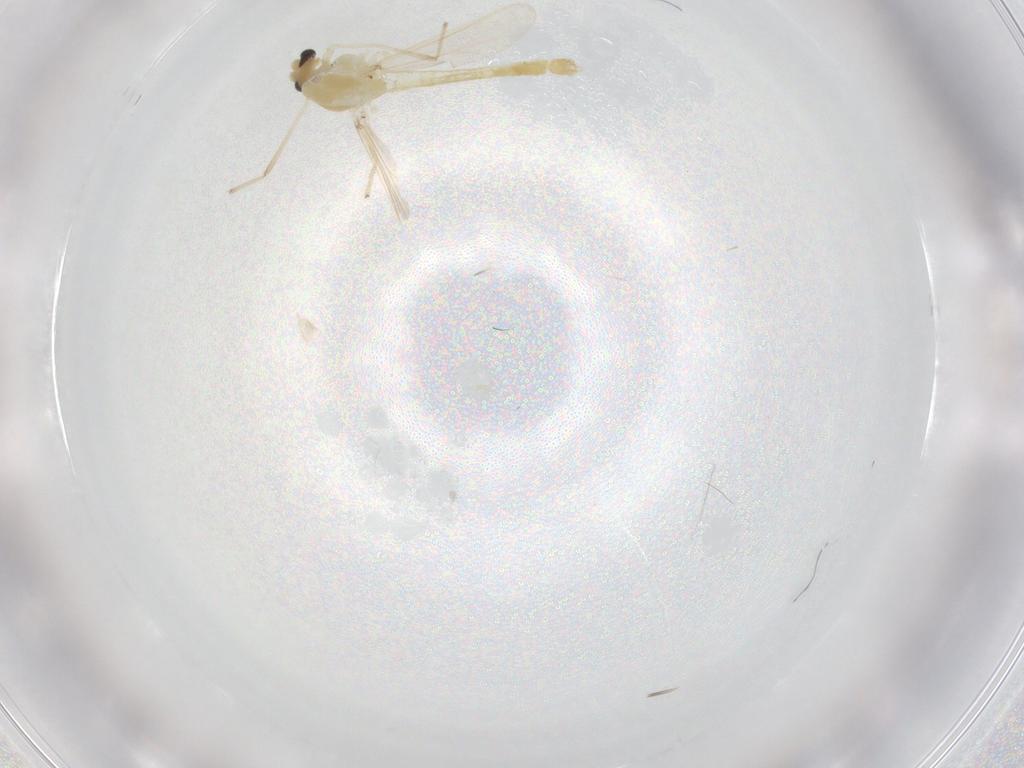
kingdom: Animalia
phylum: Arthropoda
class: Insecta
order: Diptera
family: Chironomidae
